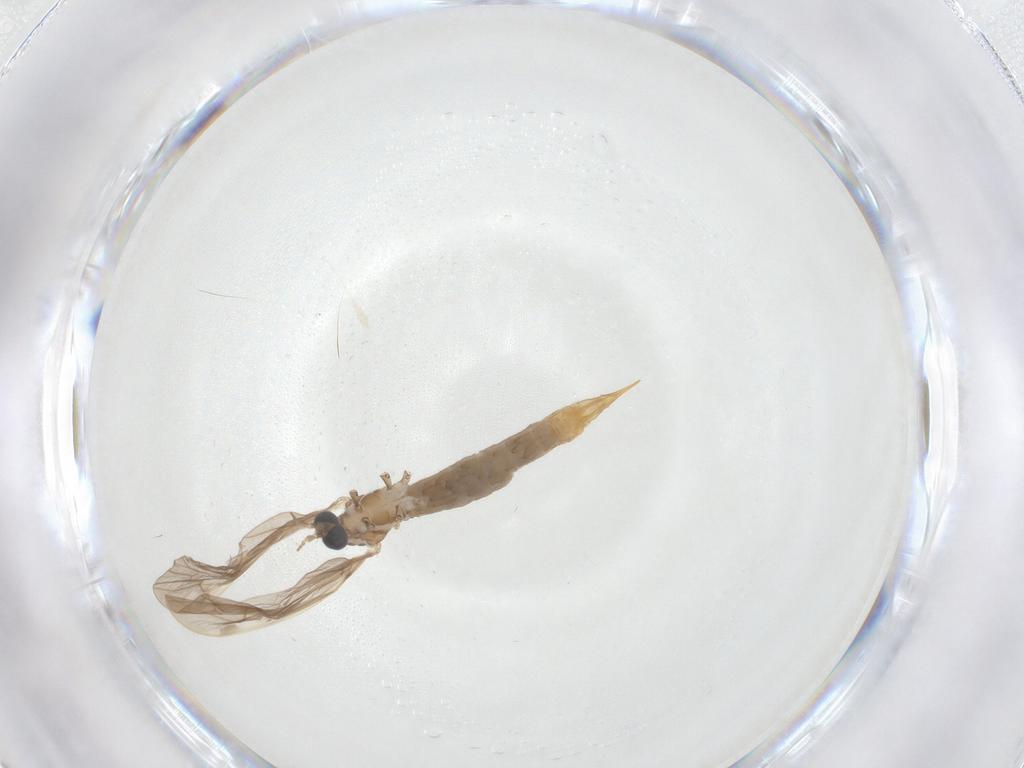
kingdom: Animalia
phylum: Arthropoda
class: Insecta
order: Diptera
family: Limoniidae
